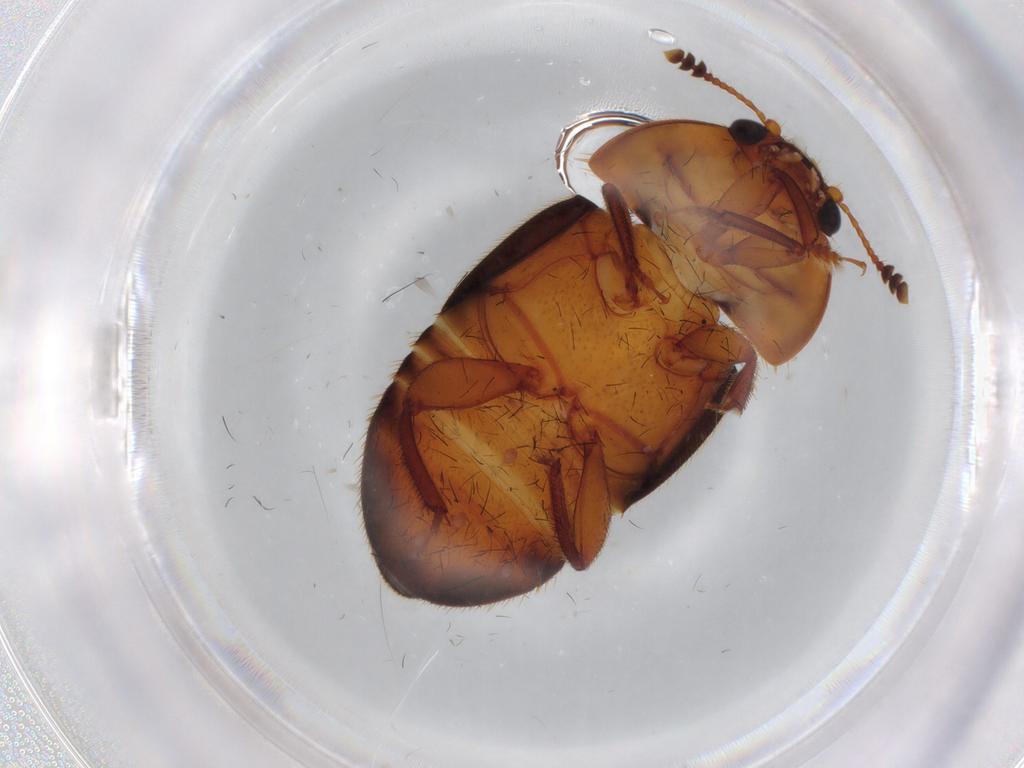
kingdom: Animalia
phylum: Arthropoda
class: Insecta
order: Coleoptera
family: Nitidulidae
